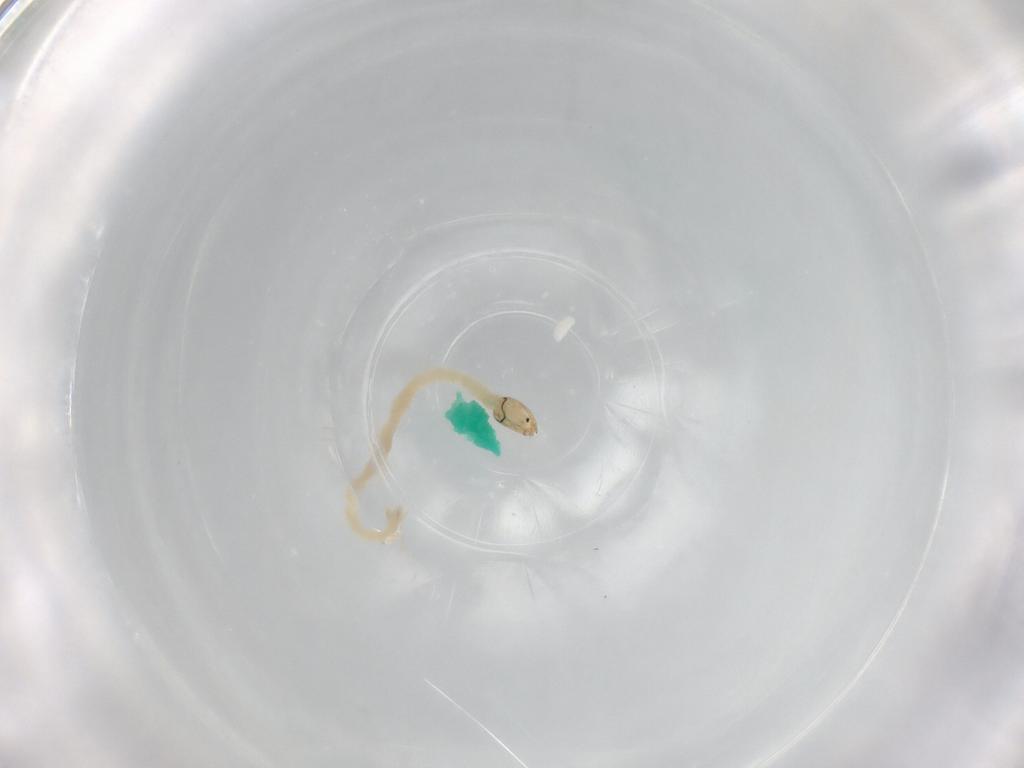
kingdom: Animalia
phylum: Arthropoda
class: Insecta
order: Diptera
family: Chironomidae
